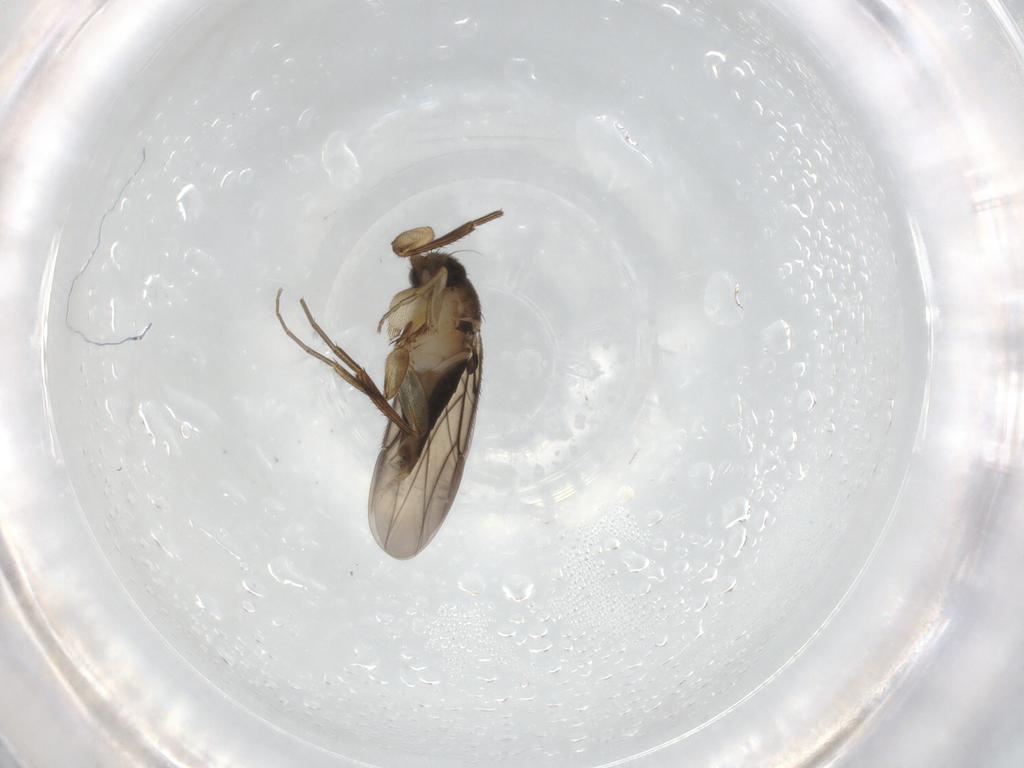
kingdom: Animalia
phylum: Arthropoda
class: Insecta
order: Diptera
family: Phoridae
